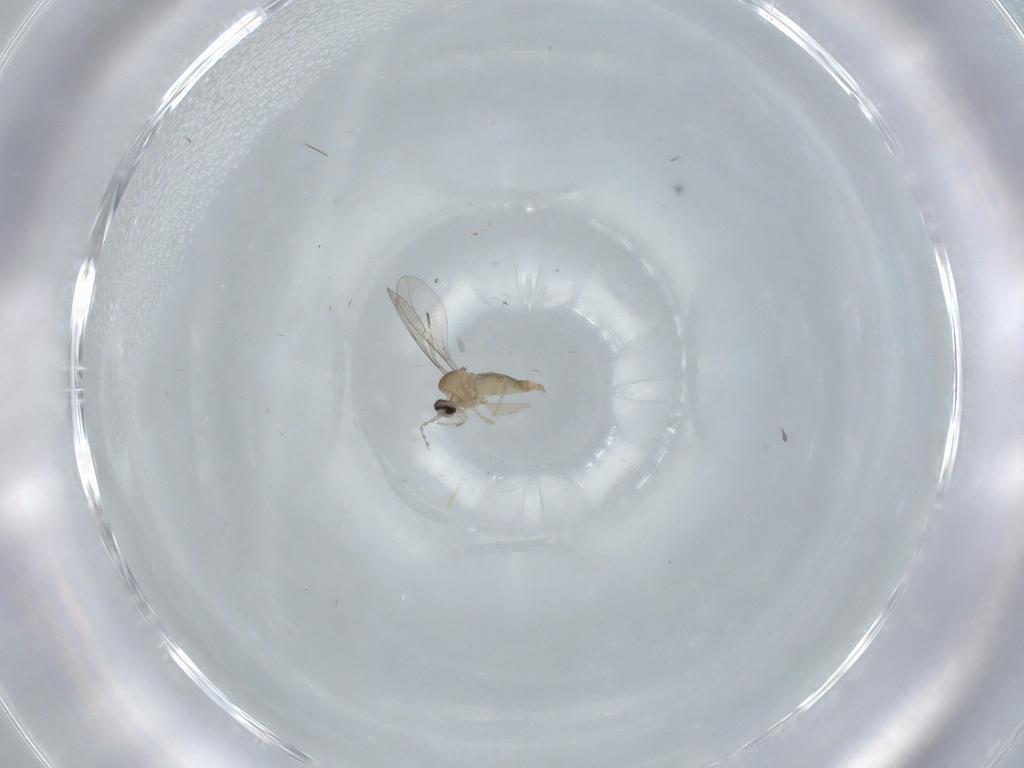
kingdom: Animalia
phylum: Arthropoda
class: Insecta
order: Diptera
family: Cecidomyiidae
